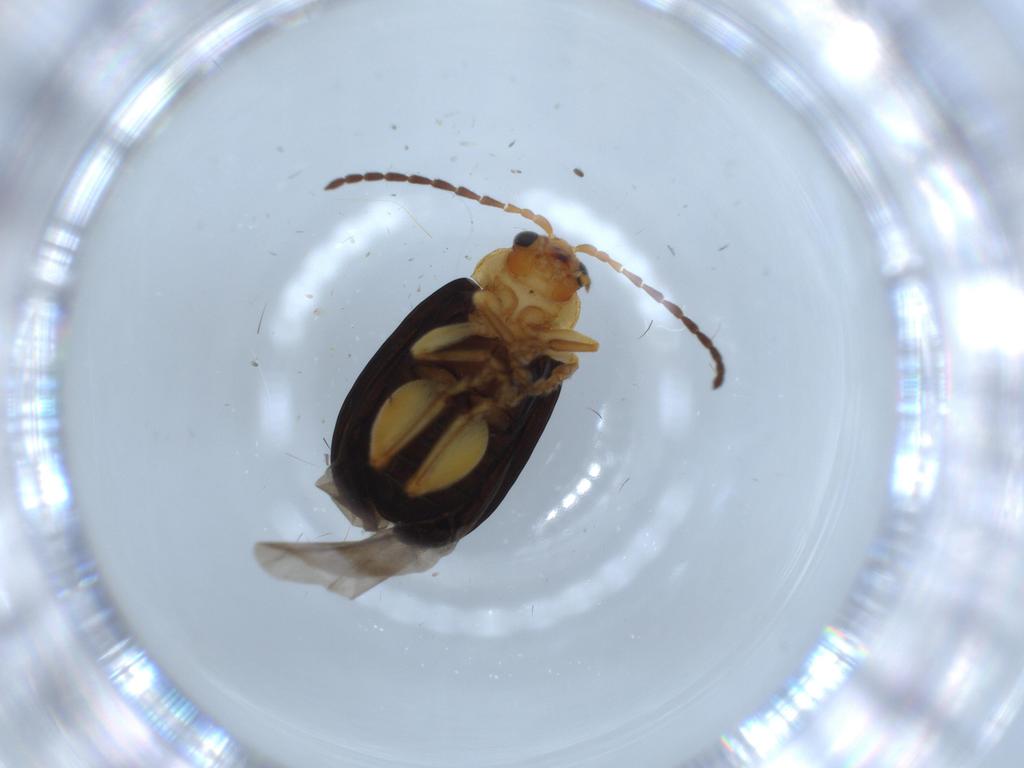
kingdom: Animalia
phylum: Arthropoda
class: Insecta
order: Coleoptera
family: Chrysomelidae
